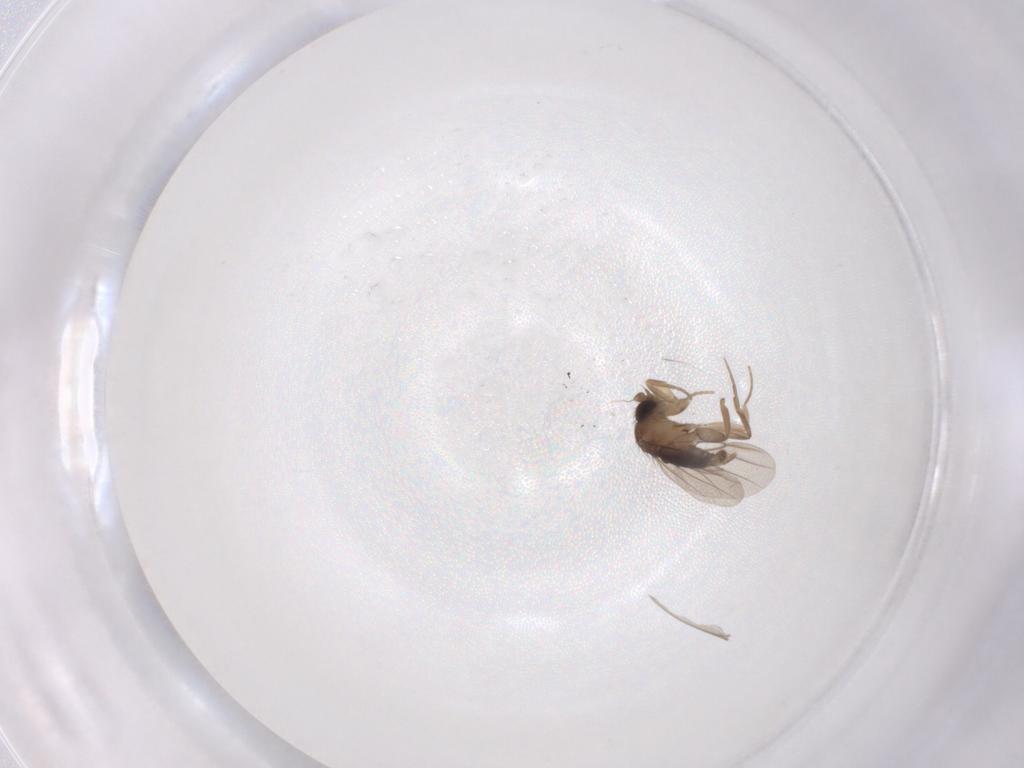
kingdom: Animalia
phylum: Arthropoda
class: Insecta
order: Diptera
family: Phoridae
